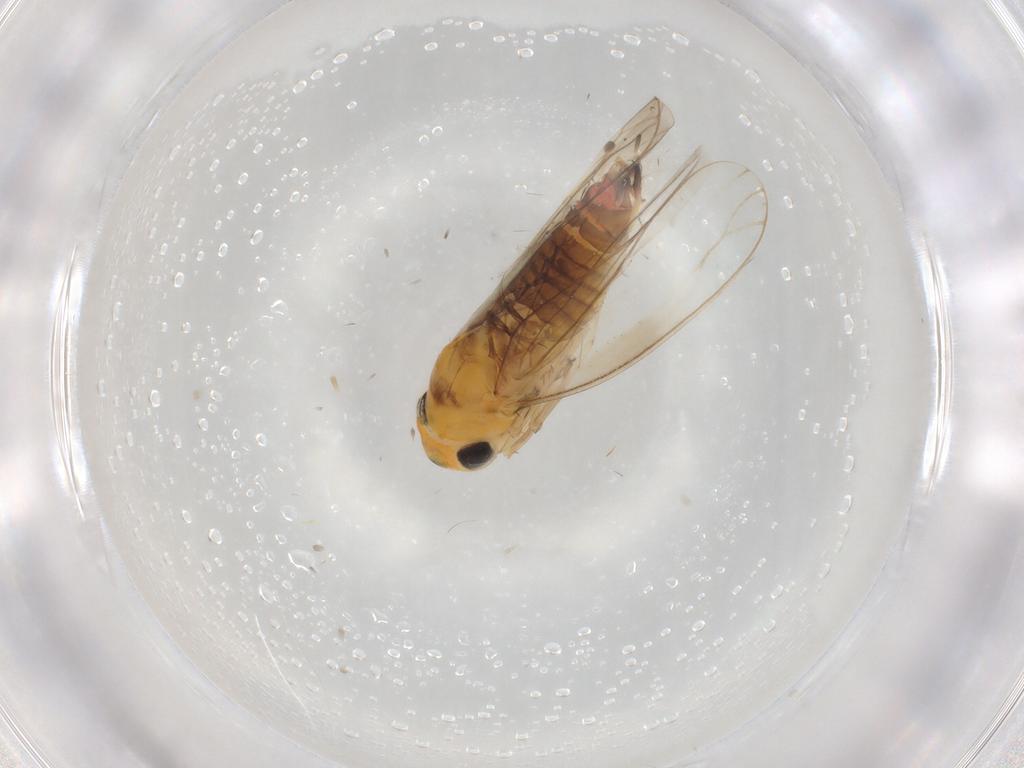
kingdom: Animalia
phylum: Arthropoda
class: Insecta
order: Hemiptera
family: Cicadellidae
